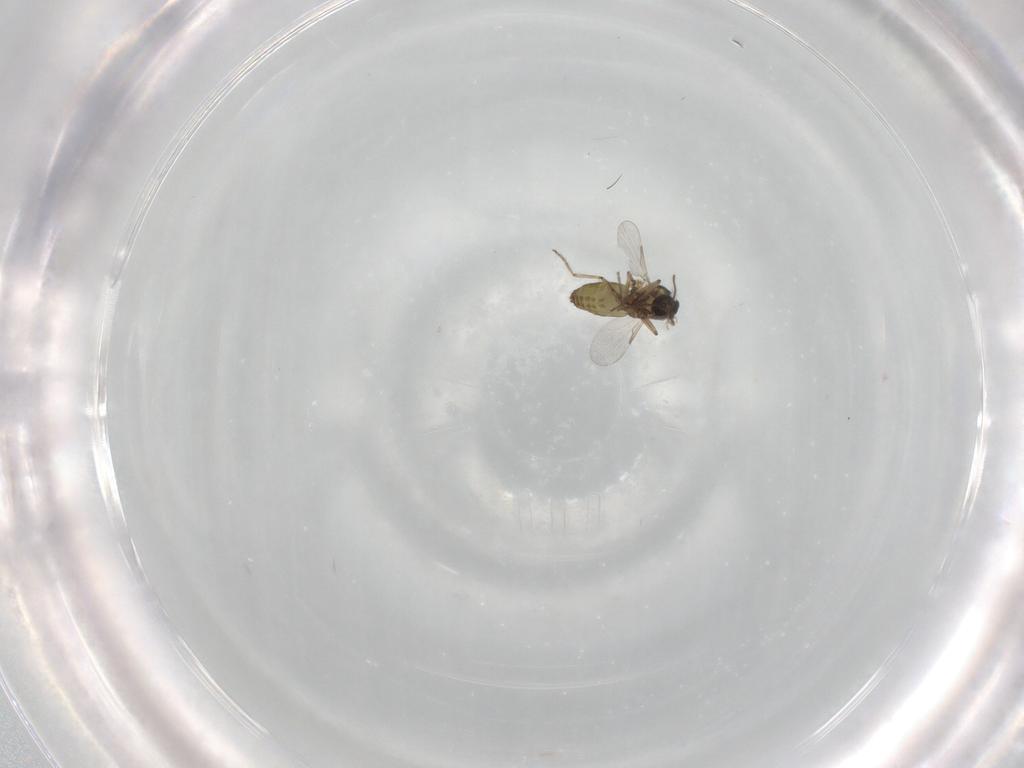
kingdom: Animalia
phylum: Arthropoda
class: Insecta
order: Diptera
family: Ceratopogonidae
